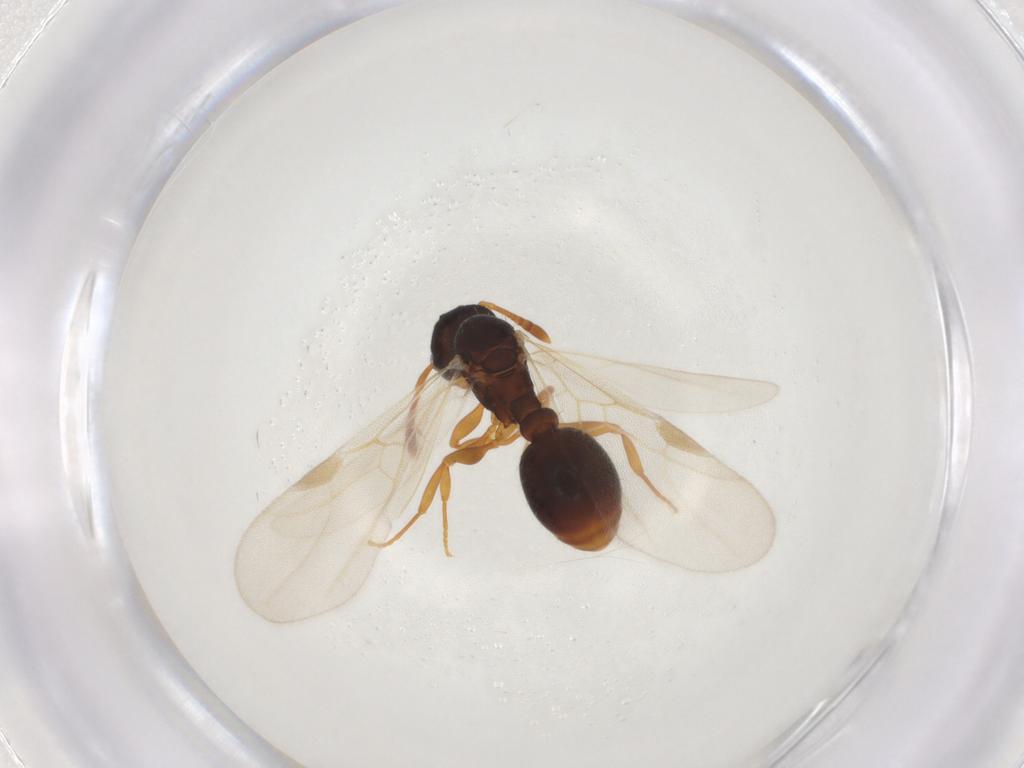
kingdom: Animalia
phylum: Arthropoda
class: Insecta
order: Hymenoptera
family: Formicidae
